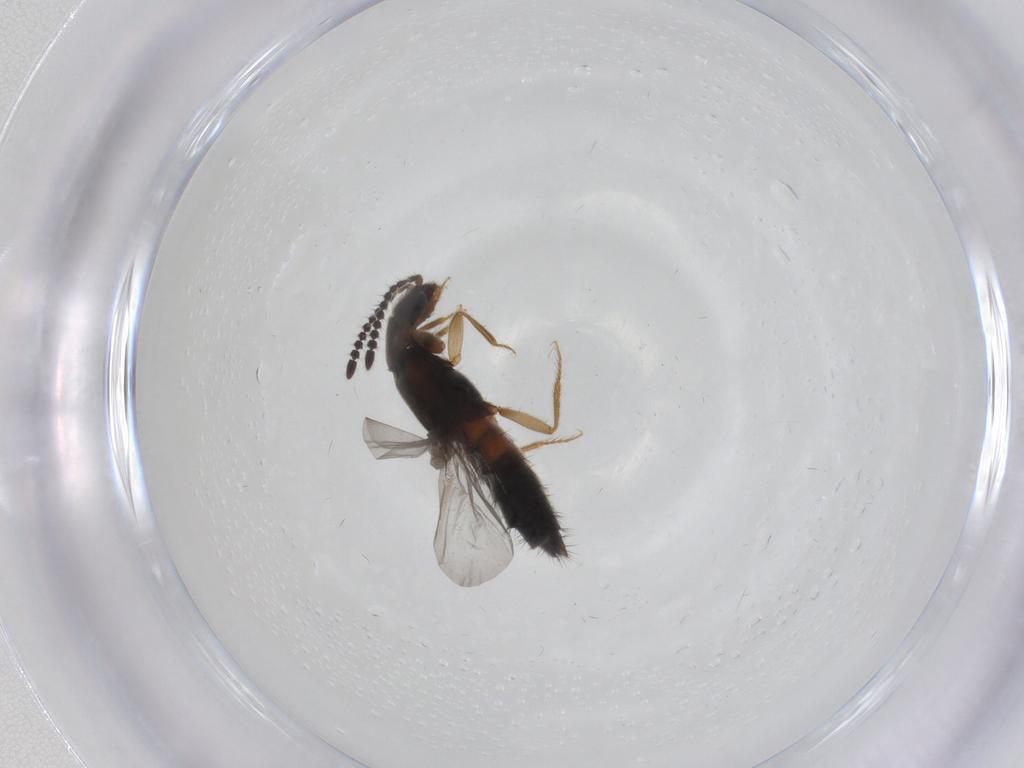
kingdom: Animalia
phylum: Arthropoda
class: Insecta
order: Coleoptera
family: Staphylinidae
